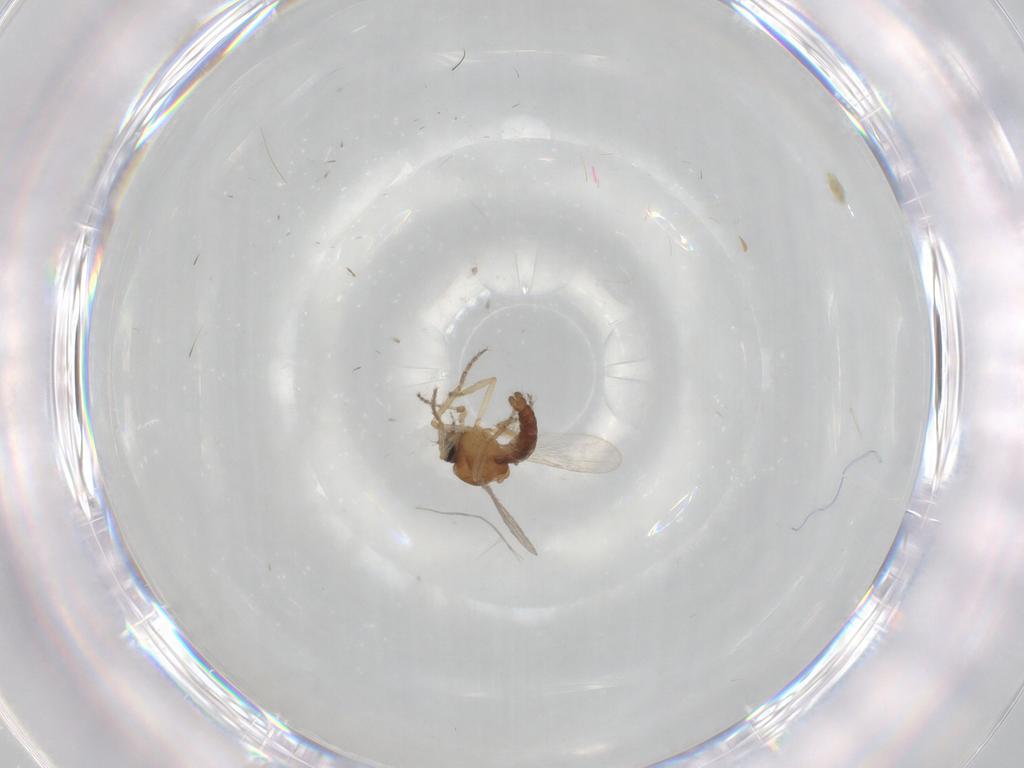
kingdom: Animalia
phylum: Arthropoda
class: Insecta
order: Diptera
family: Ceratopogonidae
